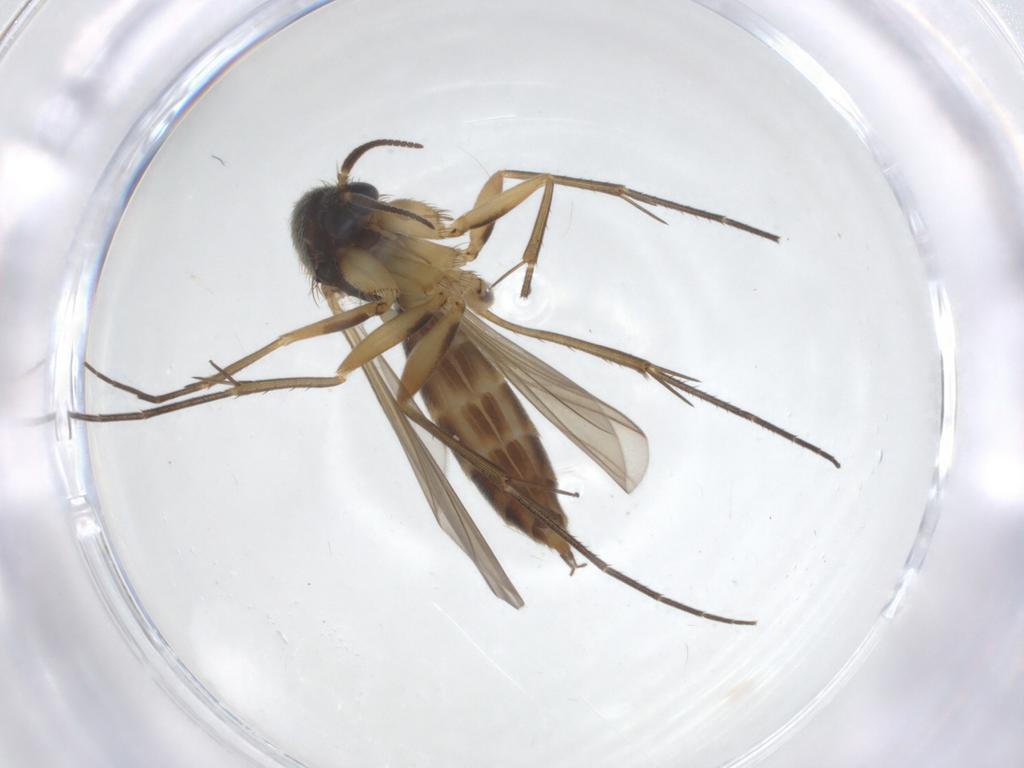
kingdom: Animalia
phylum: Arthropoda
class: Insecta
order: Diptera
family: Mycetophilidae
